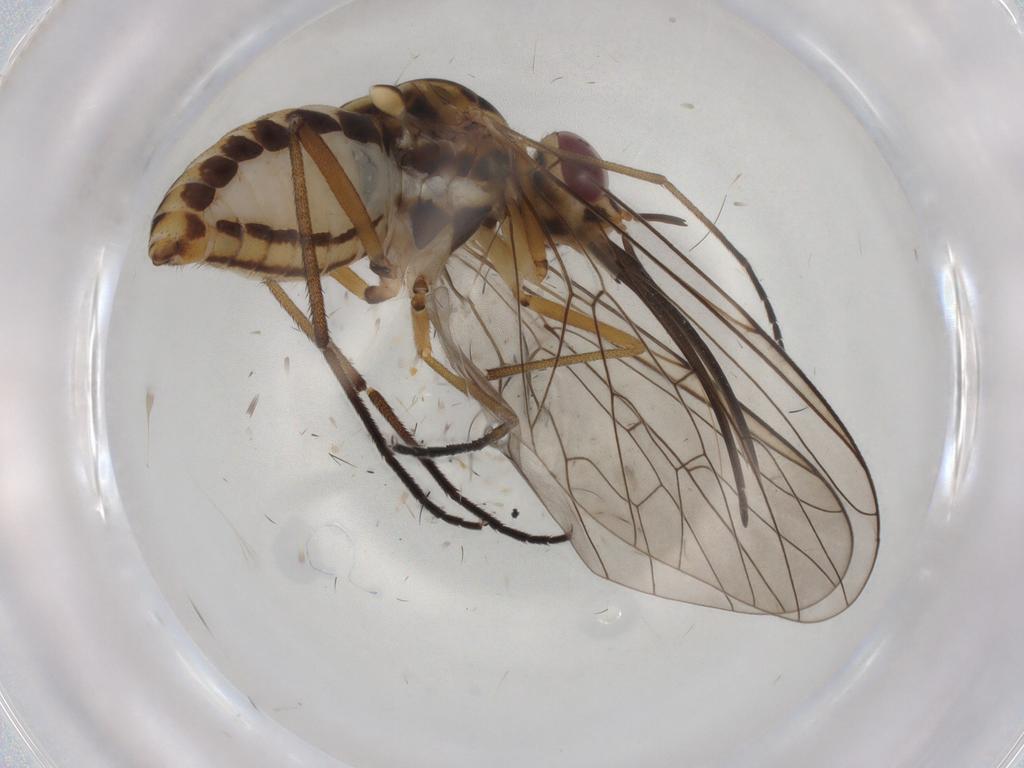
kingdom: Animalia
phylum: Arthropoda
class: Insecta
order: Diptera
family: Bombyliidae
